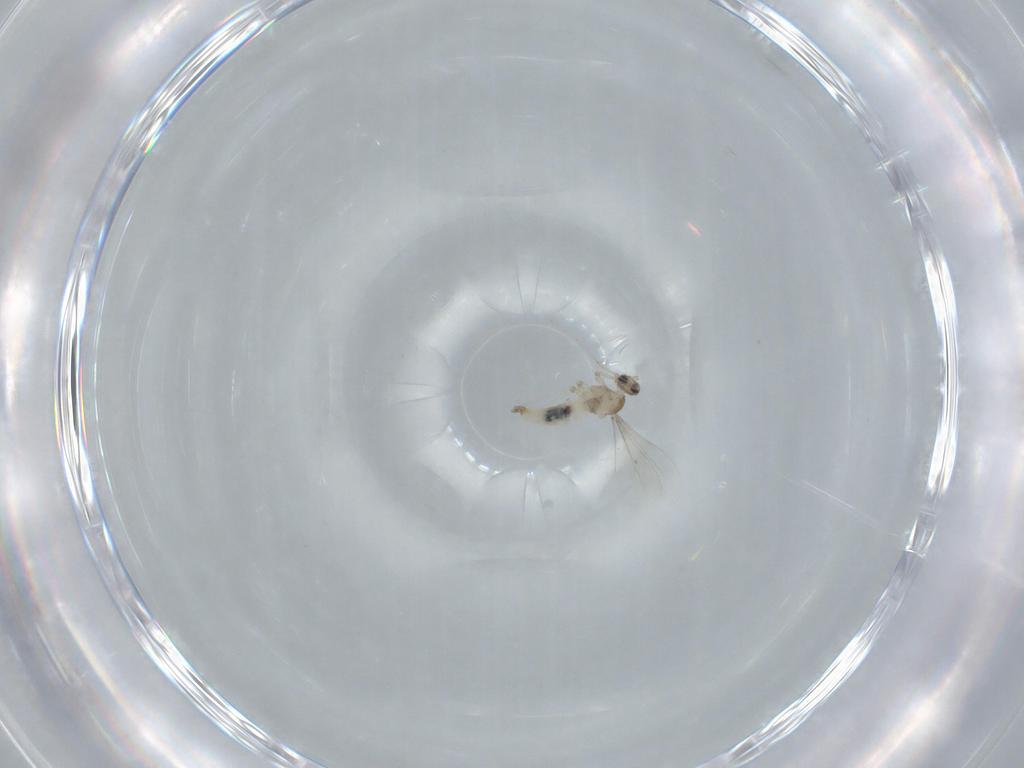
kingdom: Animalia
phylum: Arthropoda
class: Insecta
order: Diptera
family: Cecidomyiidae
